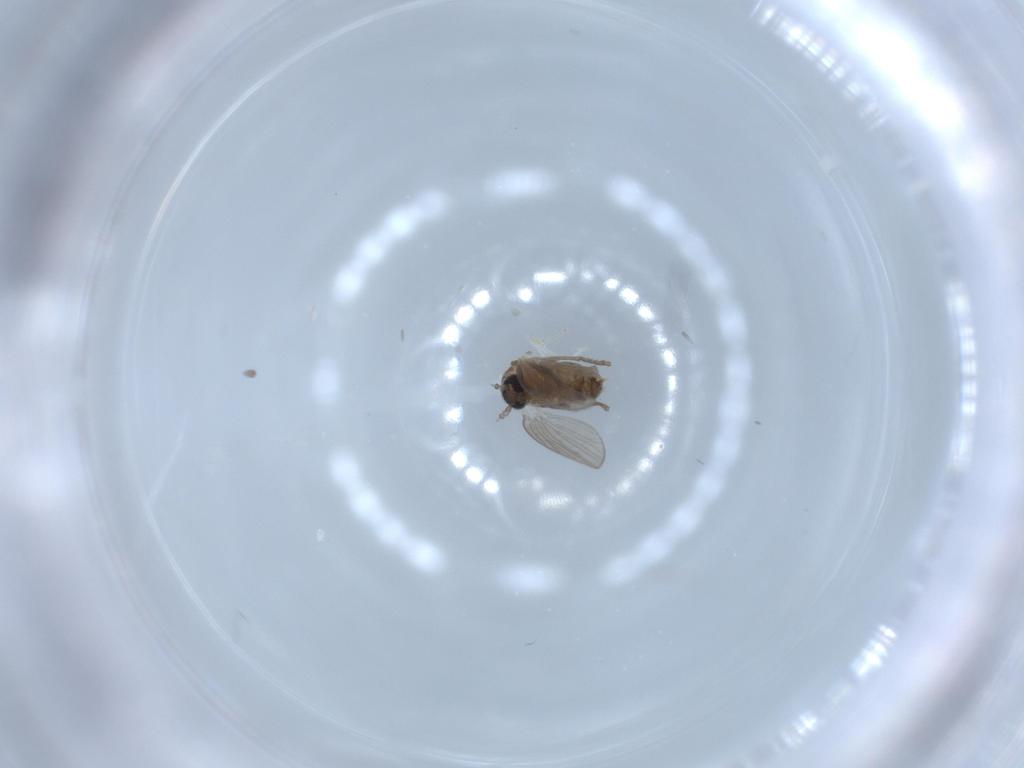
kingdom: Animalia
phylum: Arthropoda
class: Insecta
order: Diptera
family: Psychodidae
